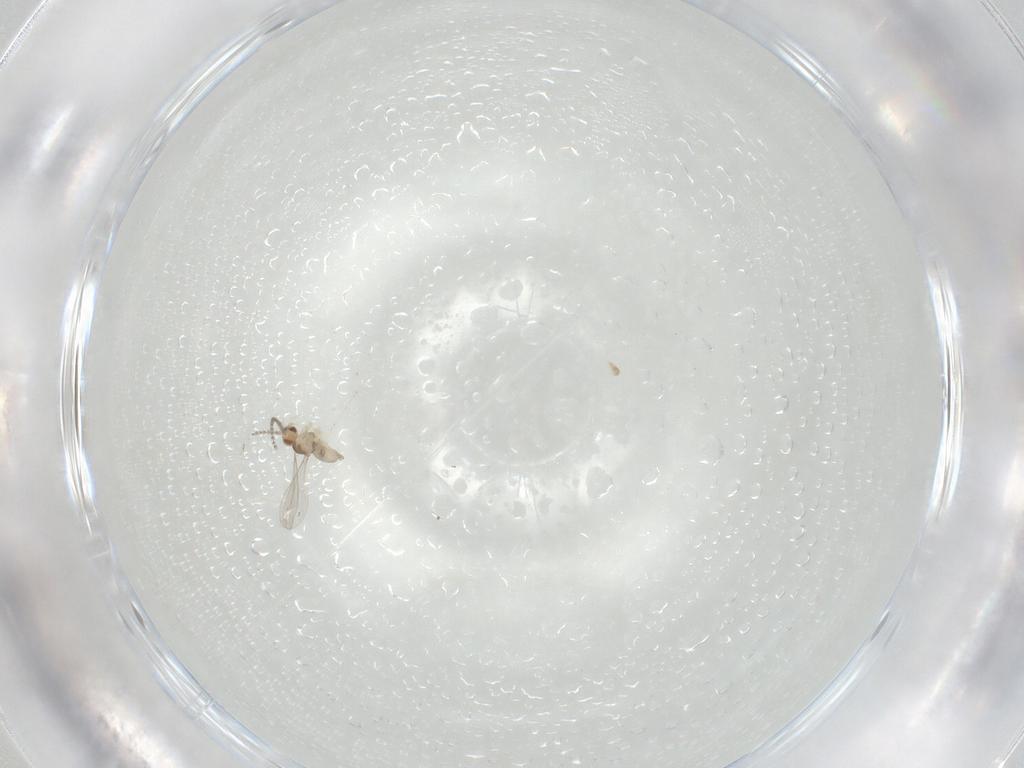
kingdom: Animalia
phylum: Arthropoda
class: Insecta
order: Diptera
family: Cecidomyiidae
